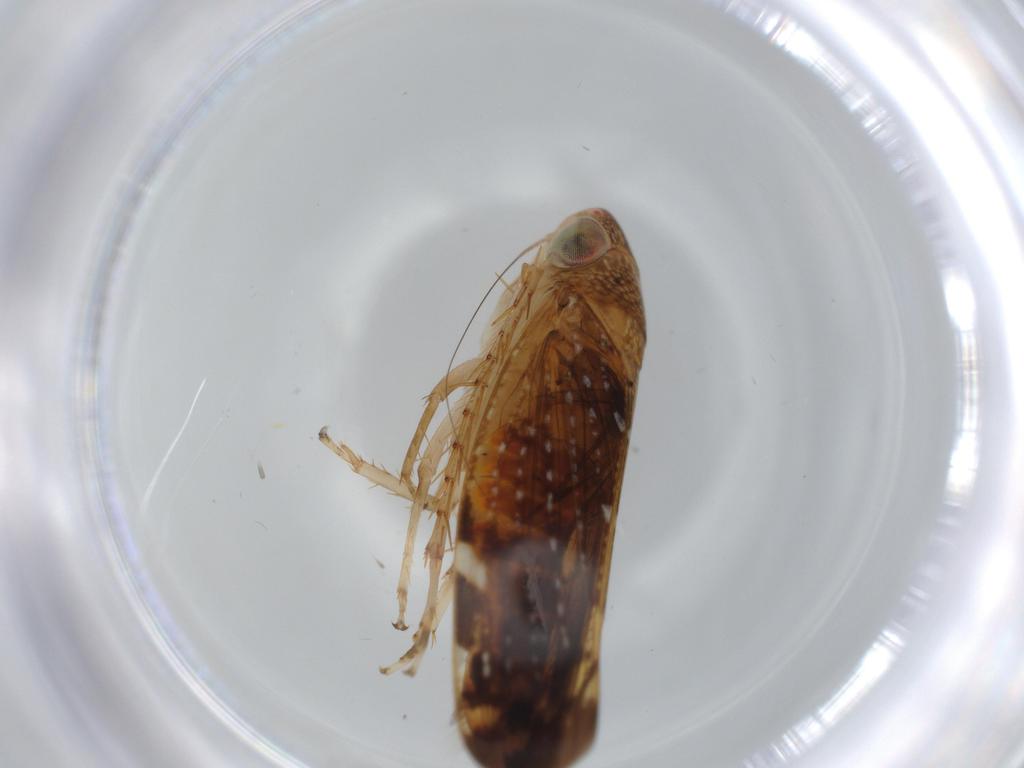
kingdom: Animalia
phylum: Arthropoda
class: Insecta
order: Hemiptera
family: Cicadellidae
